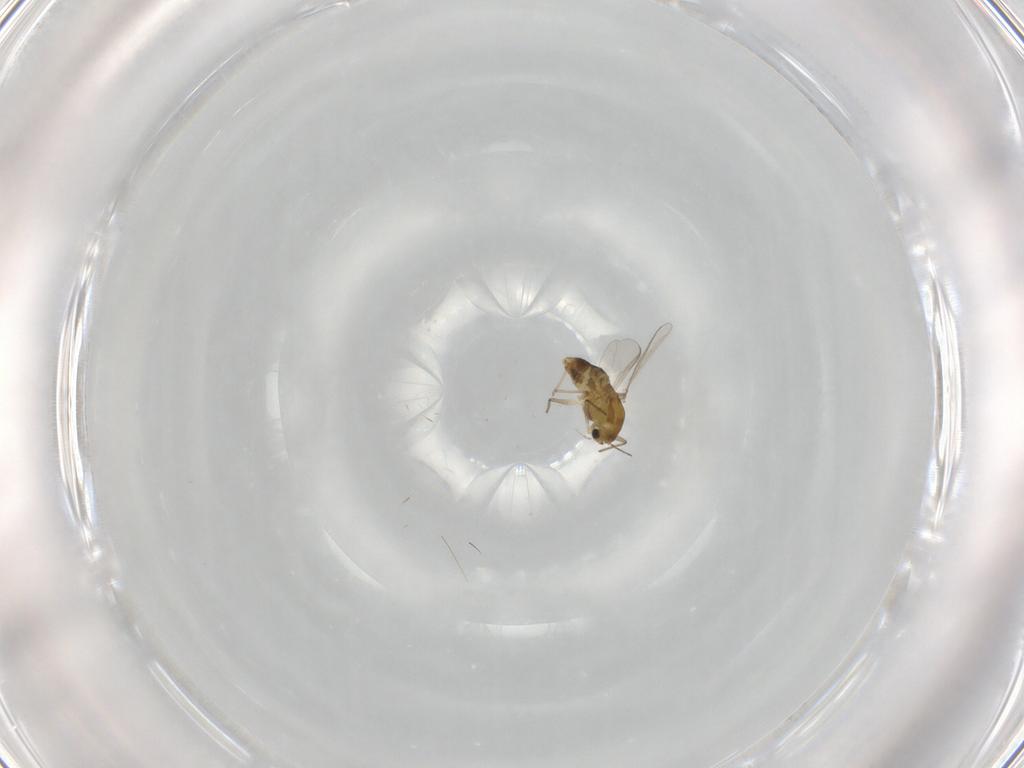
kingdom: Animalia
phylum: Arthropoda
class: Insecta
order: Diptera
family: Chironomidae
